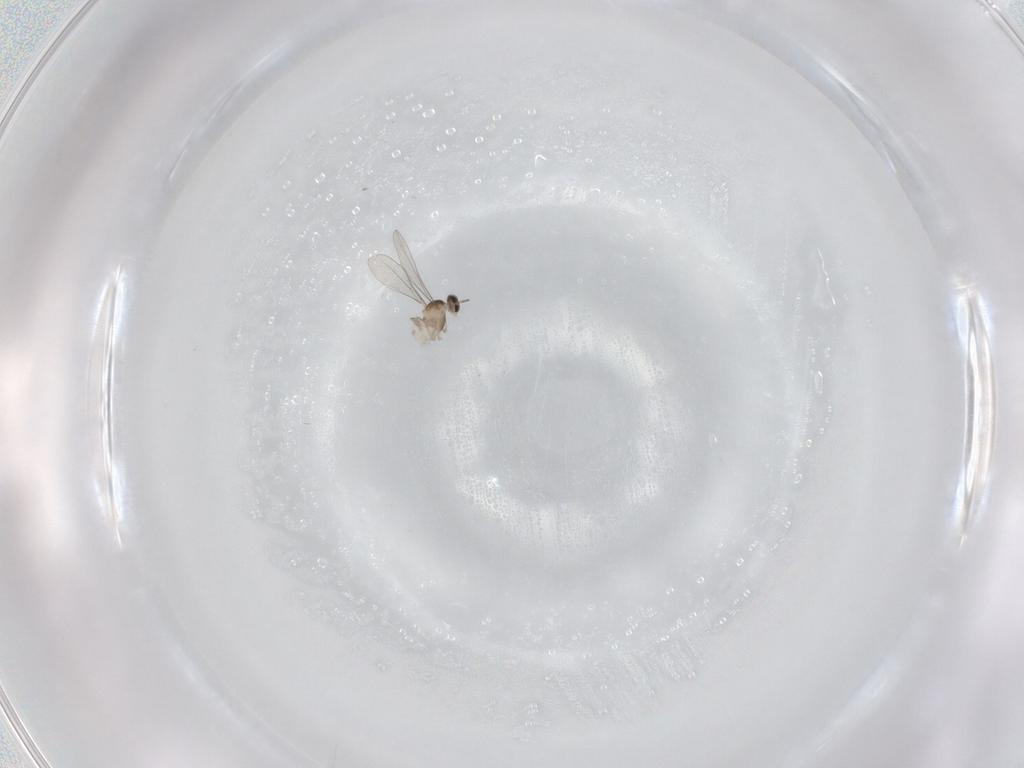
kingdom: Animalia
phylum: Arthropoda
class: Insecta
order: Diptera
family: Cecidomyiidae
